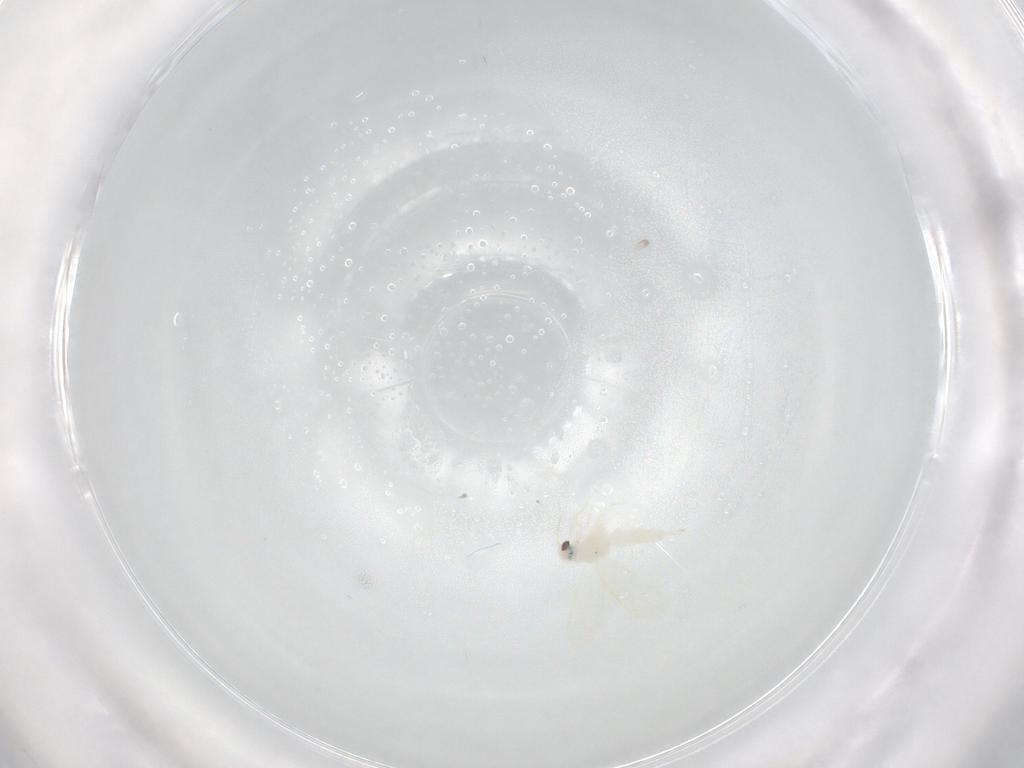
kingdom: Animalia
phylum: Arthropoda
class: Insecta
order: Hemiptera
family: Aleyrodidae
